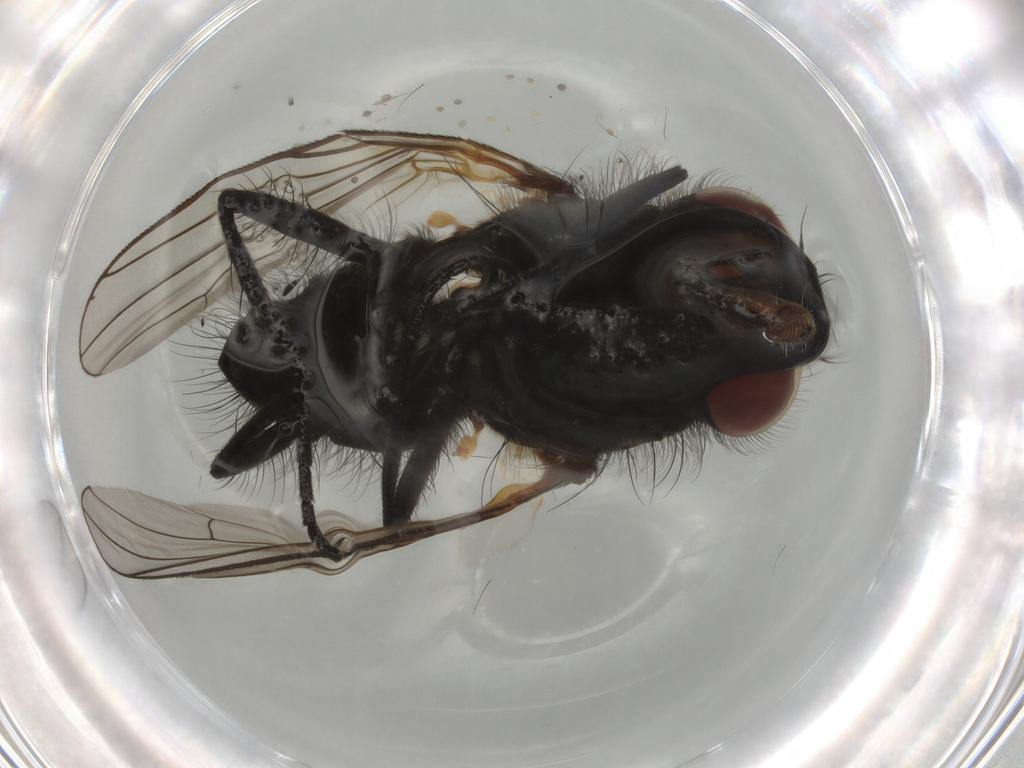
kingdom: Animalia
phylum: Arthropoda
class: Insecta
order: Diptera
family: Anthomyiidae
